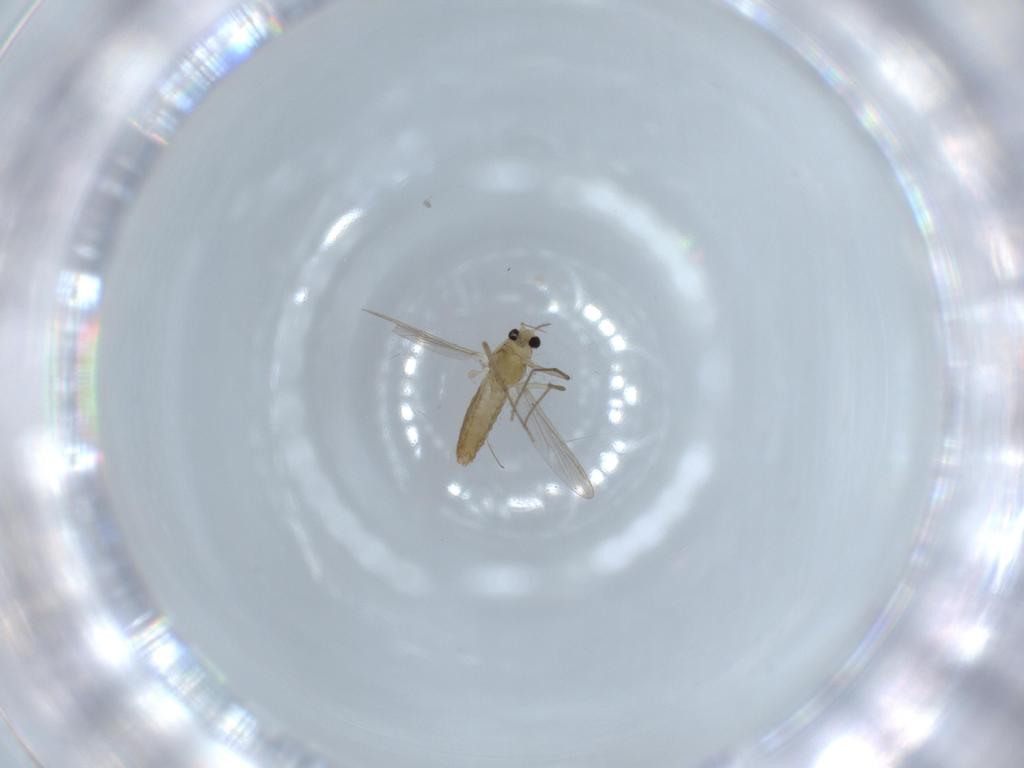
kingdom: Animalia
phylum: Arthropoda
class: Insecta
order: Diptera
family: Chironomidae
